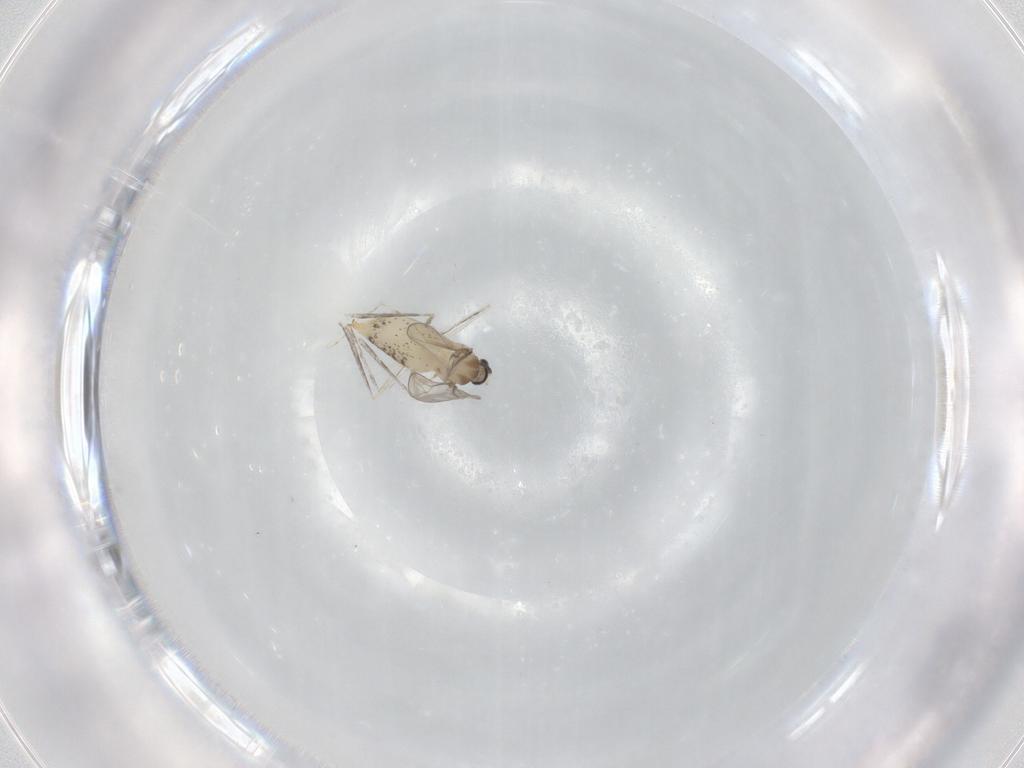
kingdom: Animalia
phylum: Arthropoda
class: Insecta
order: Diptera
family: Cecidomyiidae
